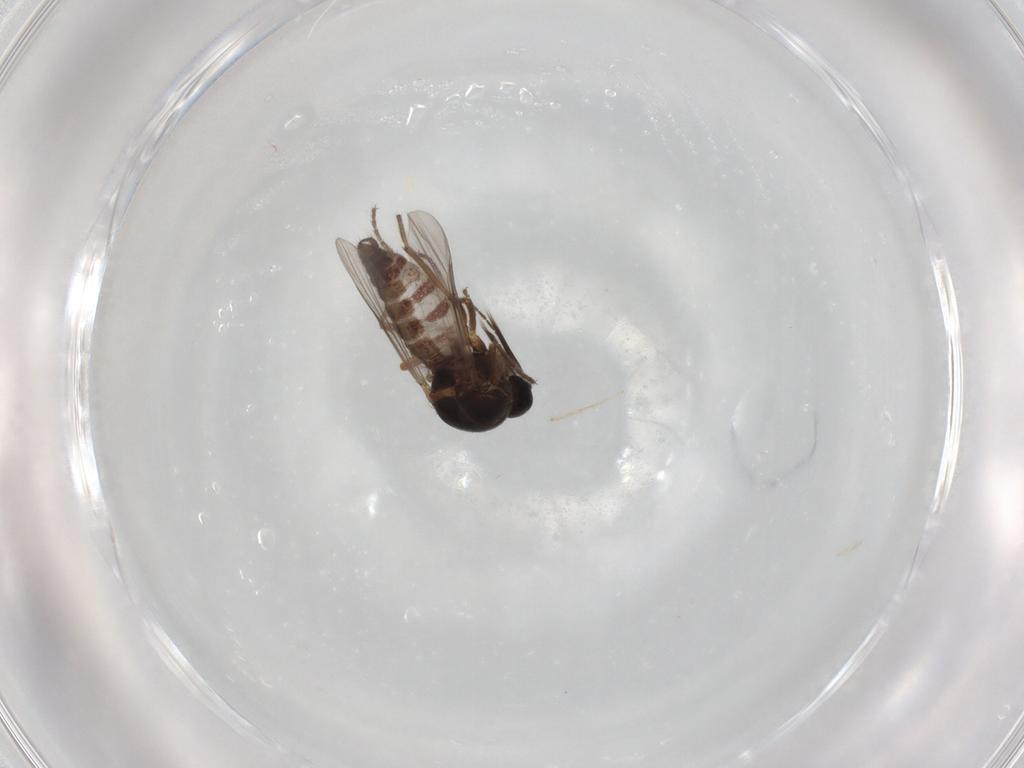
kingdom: Animalia
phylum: Arthropoda
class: Insecta
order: Diptera
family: Ceratopogonidae
